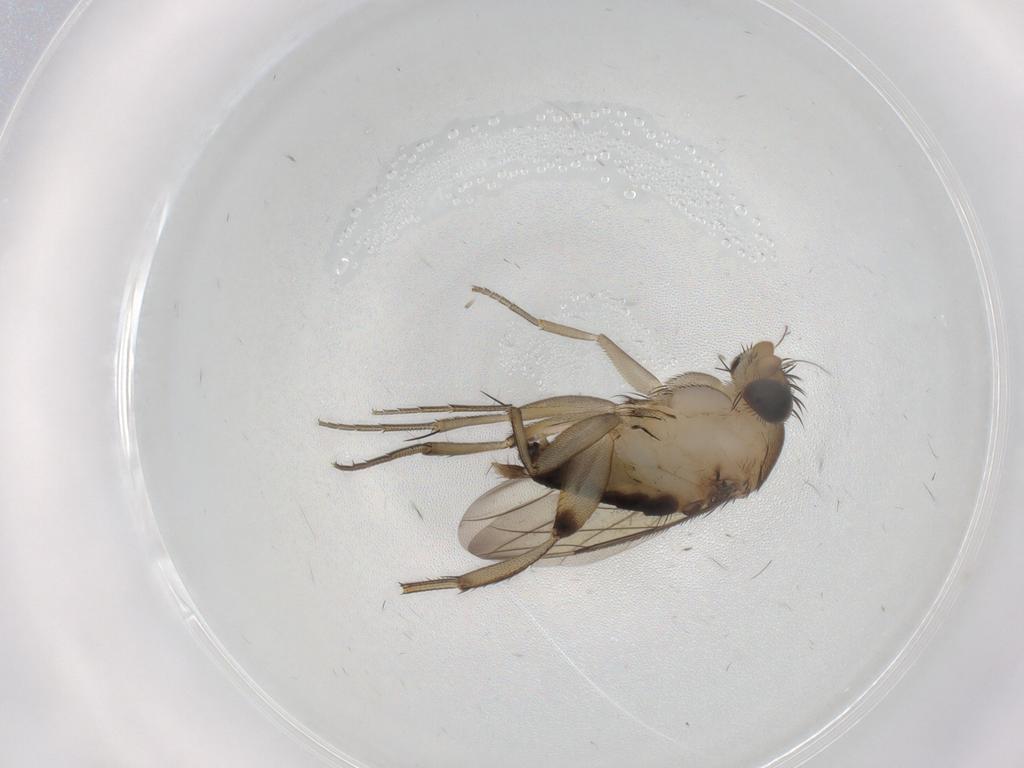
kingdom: Animalia
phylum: Arthropoda
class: Insecta
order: Diptera
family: Phoridae
